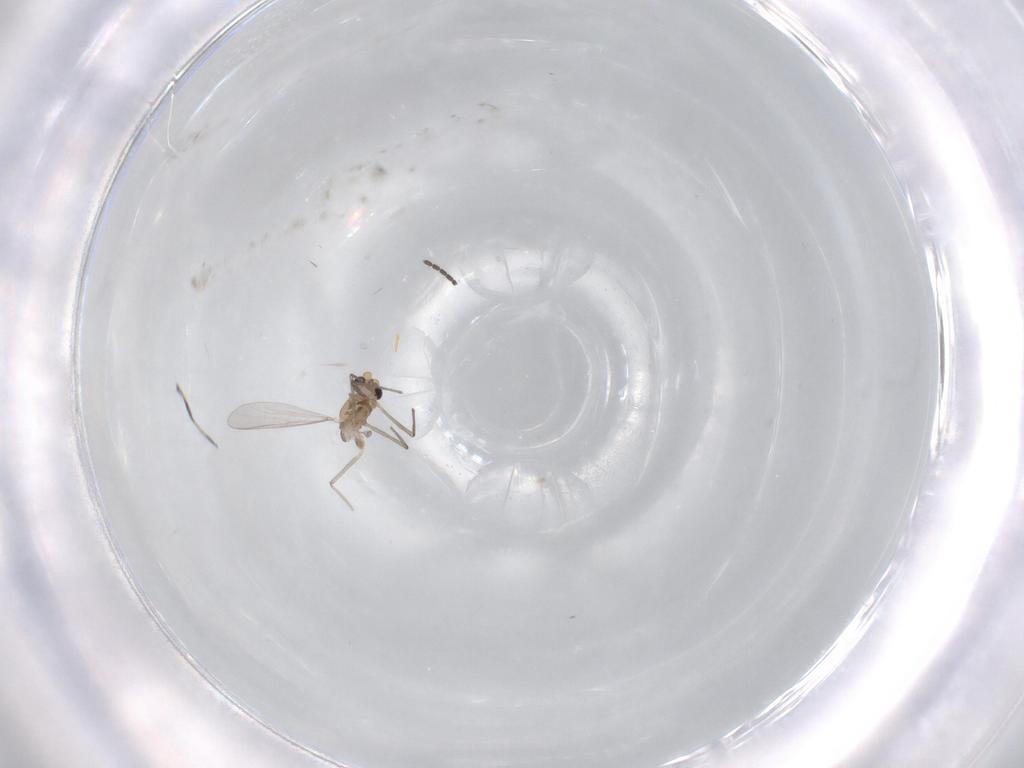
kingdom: Animalia
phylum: Arthropoda
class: Insecta
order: Diptera
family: Chironomidae
